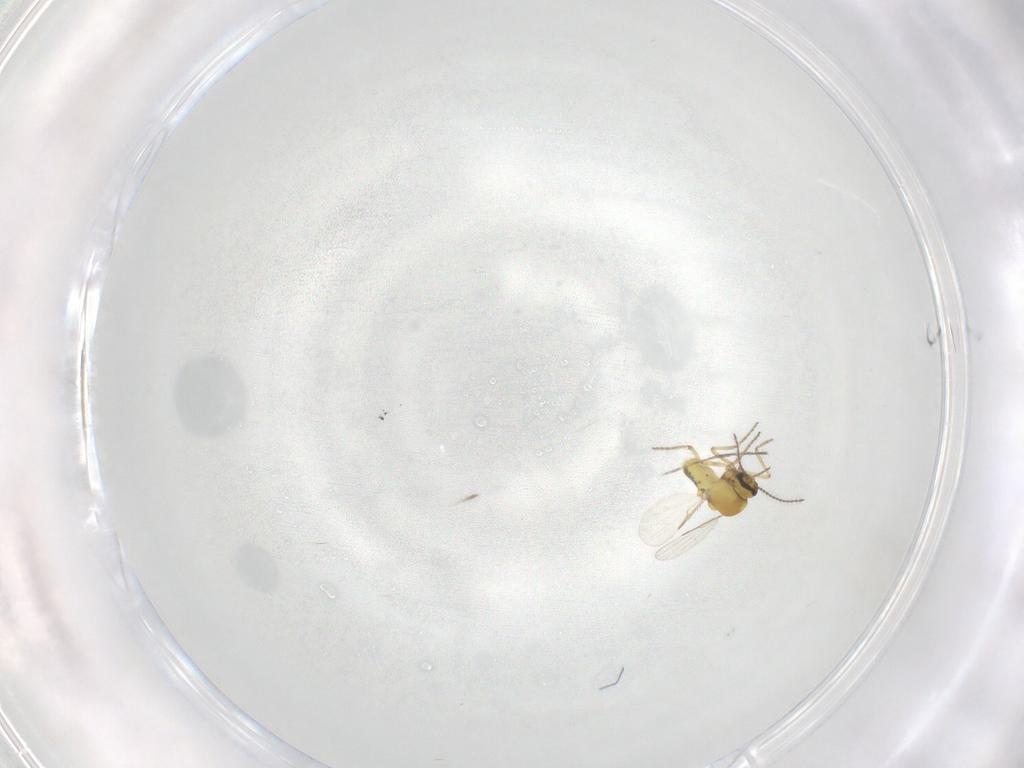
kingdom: Animalia
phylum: Arthropoda
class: Insecta
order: Diptera
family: Ceratopogonidae
